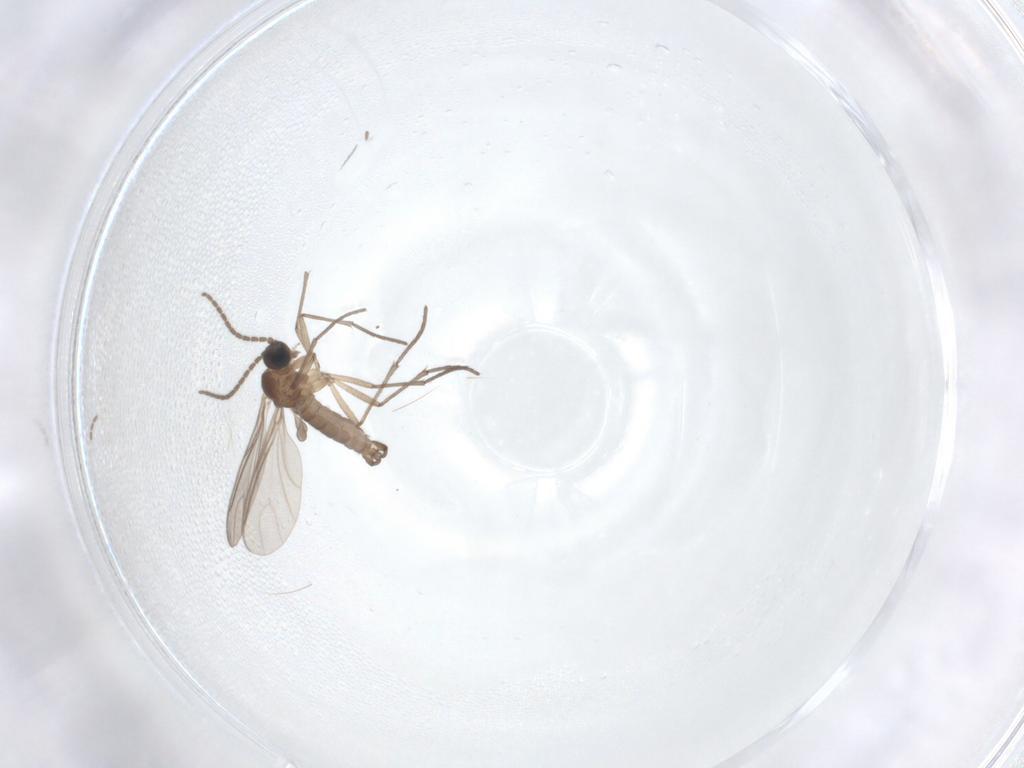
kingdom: Animalia
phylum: Arthropoda
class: Insecta
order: Diptera
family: Sciaridae
